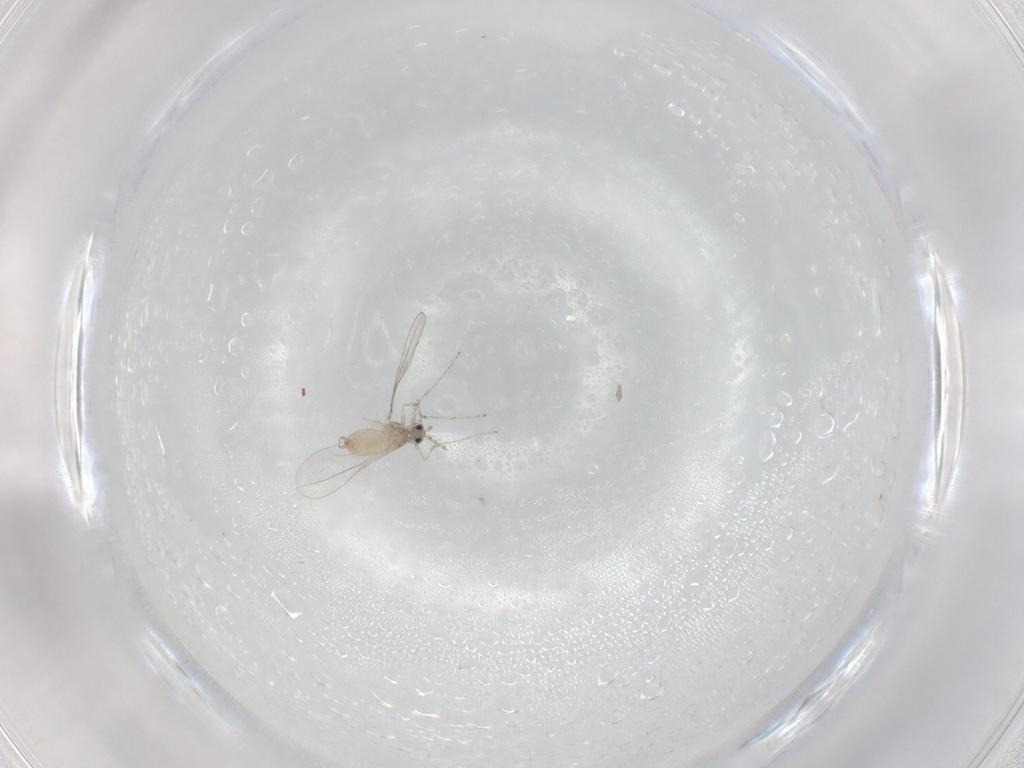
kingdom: Animalia
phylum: Arthropoda
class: Insecta
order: Diptera
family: Cecidomyiidae
